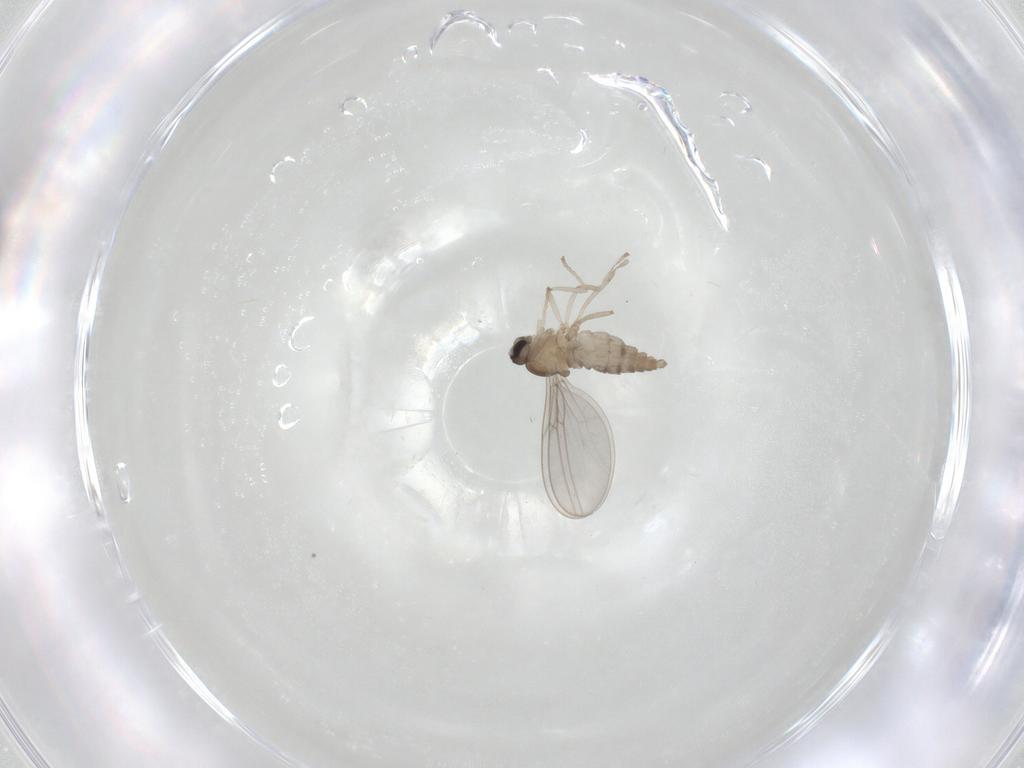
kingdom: Animalia
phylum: Arthropoda
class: Insecta
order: Diptera
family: Cecidomyiidae
